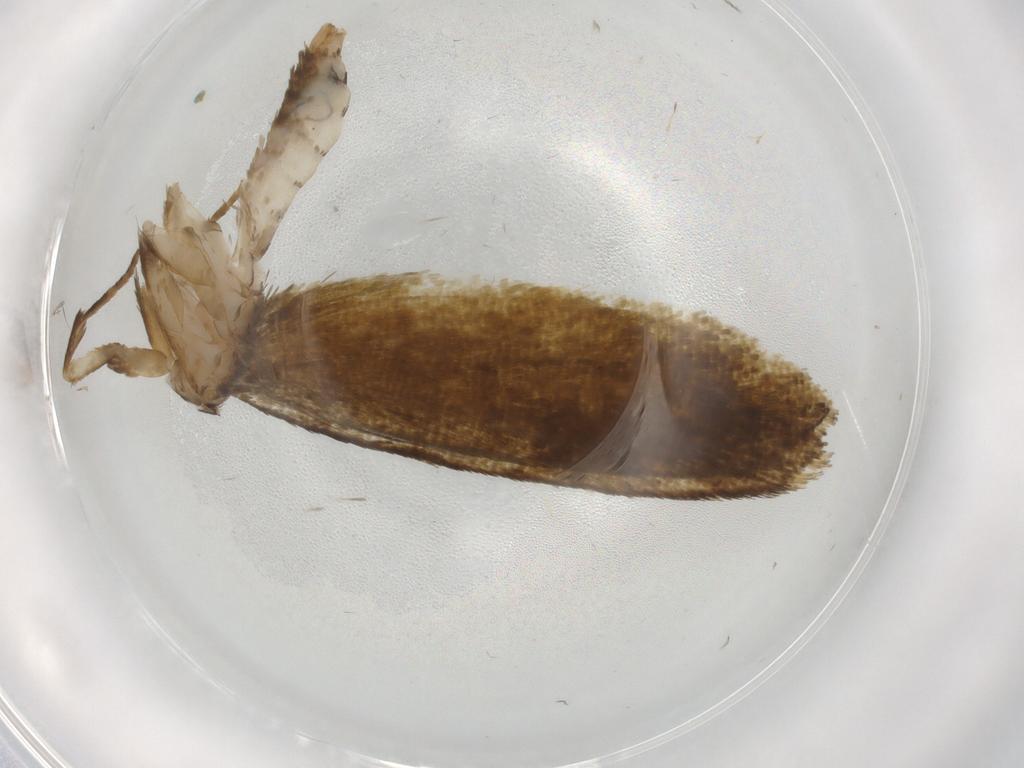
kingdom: Animalia
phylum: Arthropoda
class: Insecta
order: Lepidoptera
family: Tineidae
